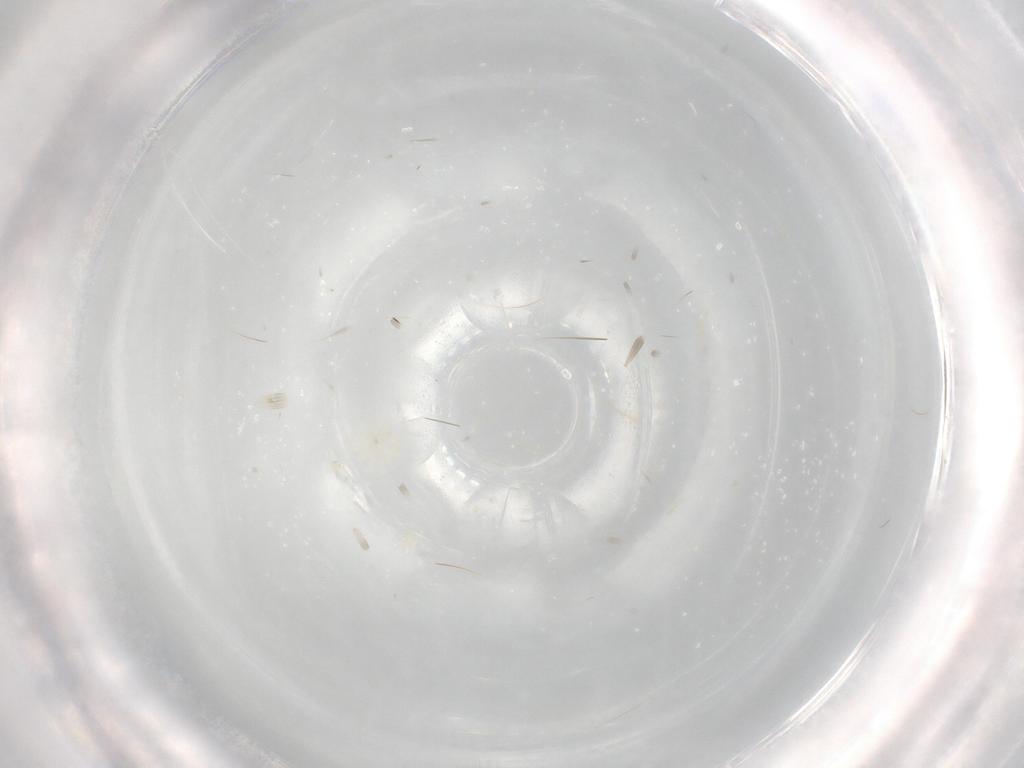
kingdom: Animalia
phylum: Arthropoda
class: Arachnida
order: Mesostigmata
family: Melicharidae
